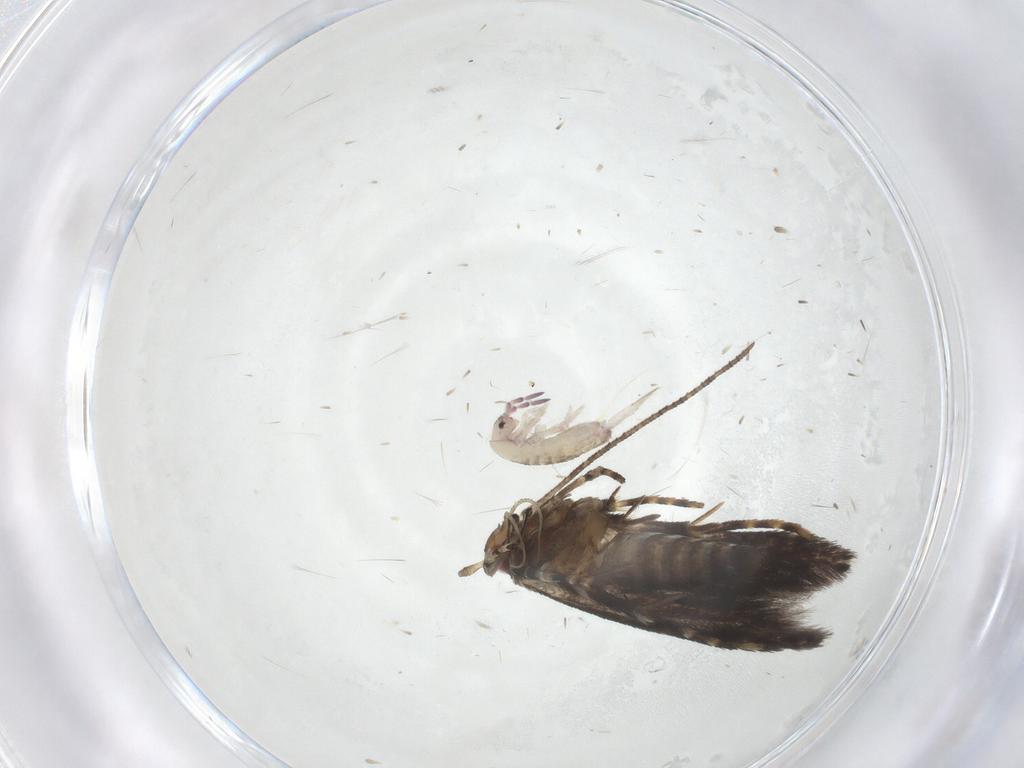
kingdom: Animalia
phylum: Arthropoda
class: Insecta
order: Lepidoptera
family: Cosmopterigidae
